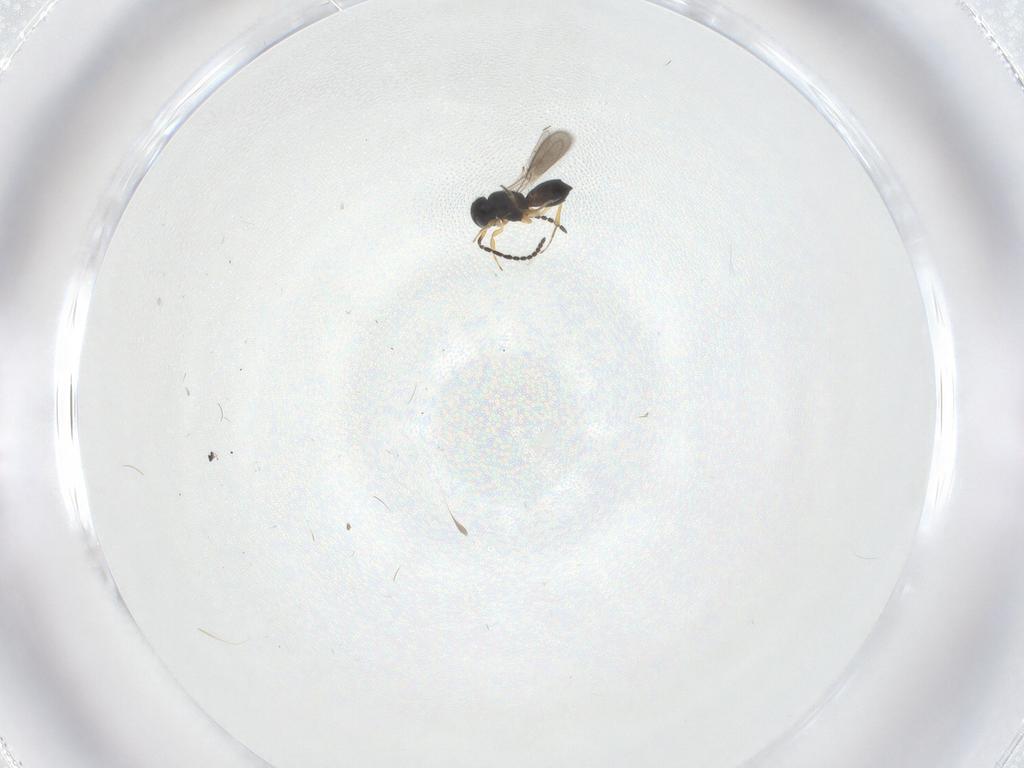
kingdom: Animalia
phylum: Arthropoda
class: Insecta
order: Hymenoptera
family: Scelionidae
